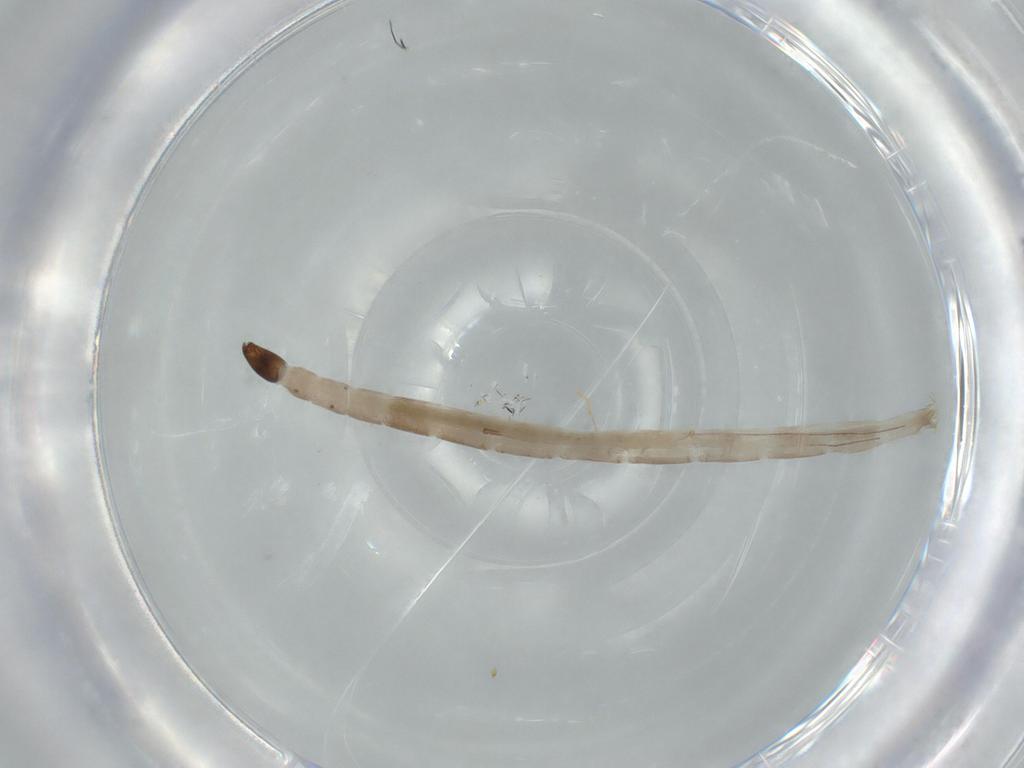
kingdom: Animalia
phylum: Arthropoda
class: Insecta
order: Diptera
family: Ceratopogonidae
